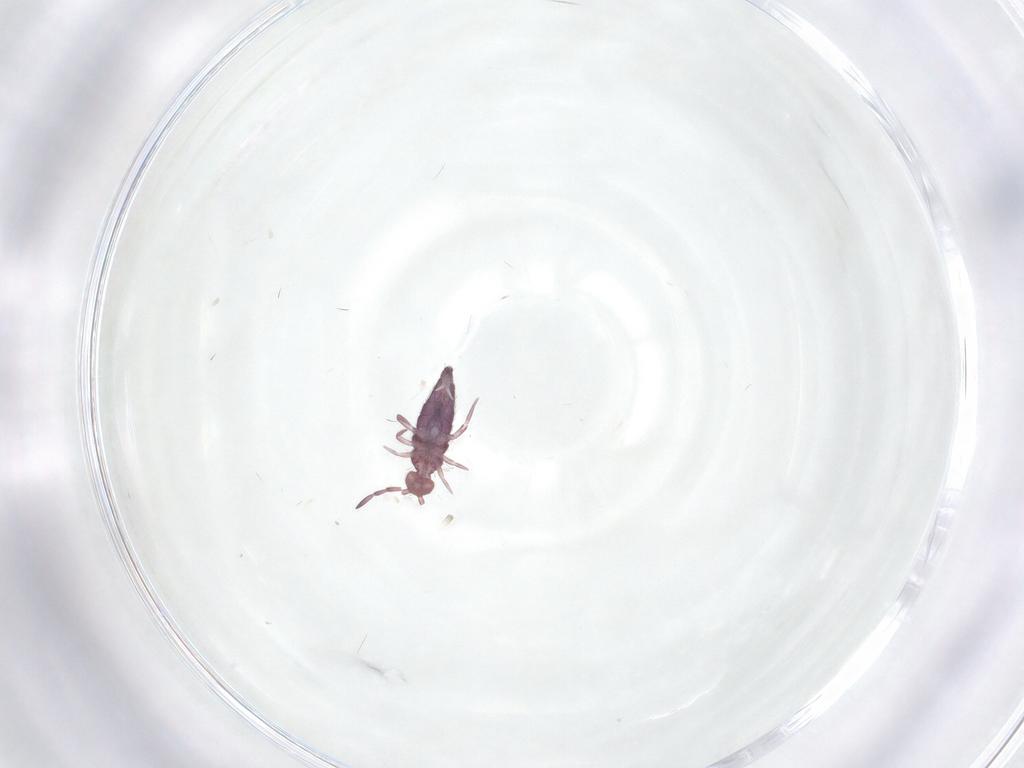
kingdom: Animalia
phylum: Arthropoda
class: Collembola
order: Entomobryomorpha
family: Entomobryidae
